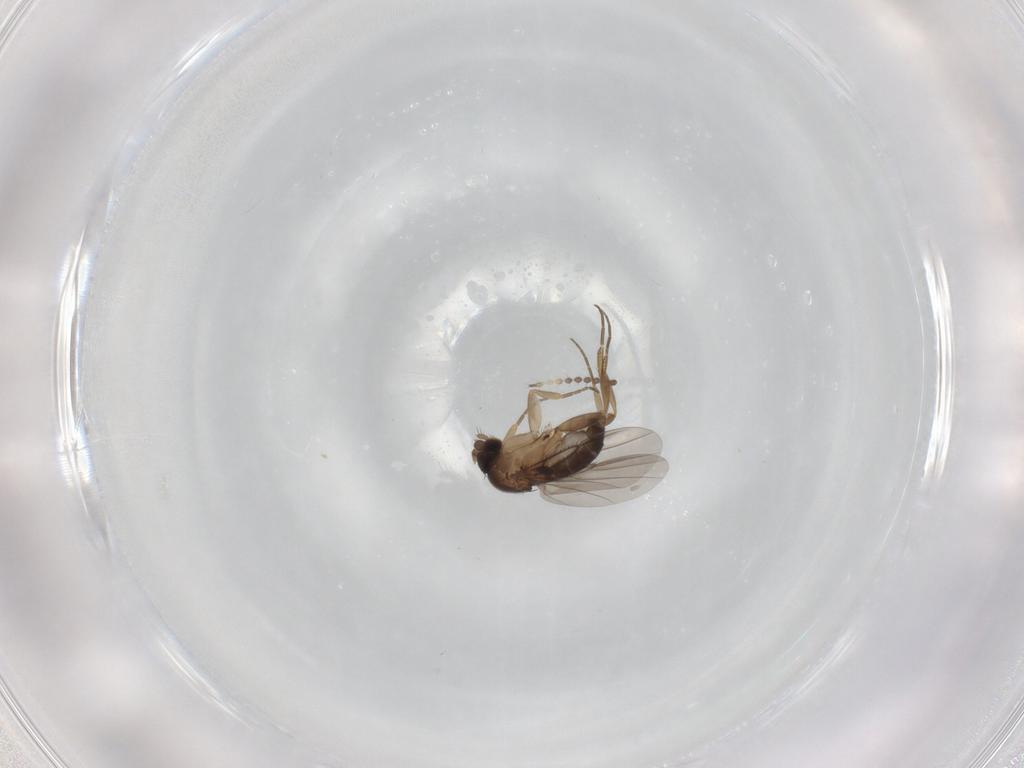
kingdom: Animalia
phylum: Arthropoda
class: Insecta
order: Diptera
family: Phoridae
